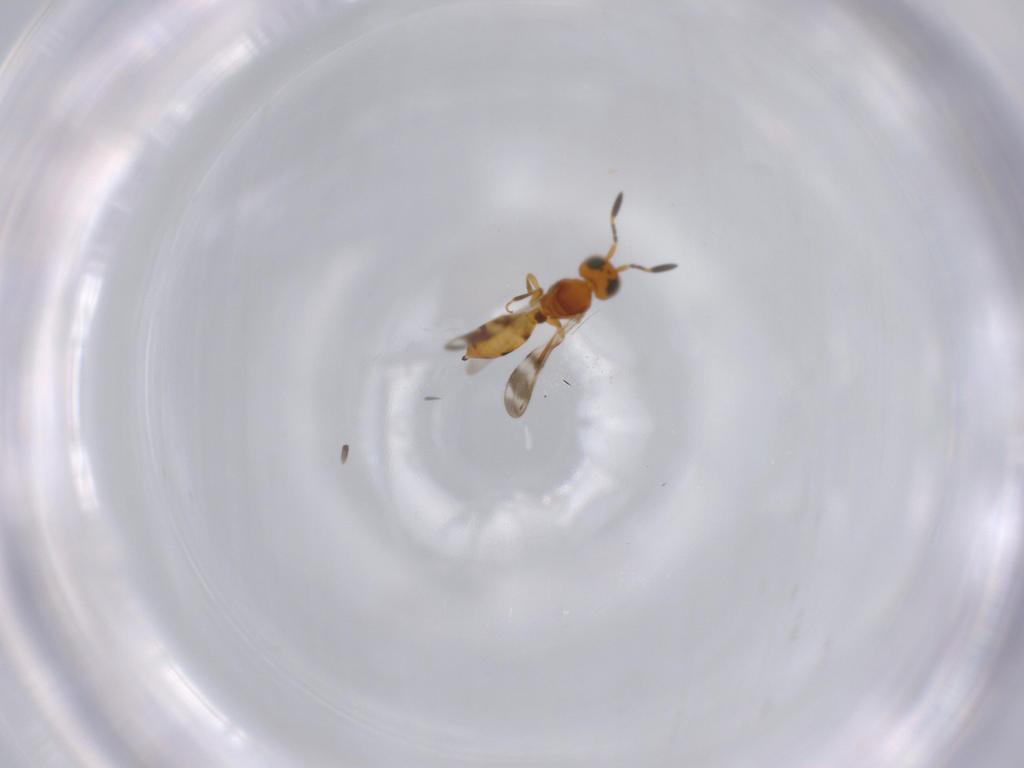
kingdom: Animalia
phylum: Arthropoda
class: Insecta
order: Hymenoptera
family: Scelionidae
